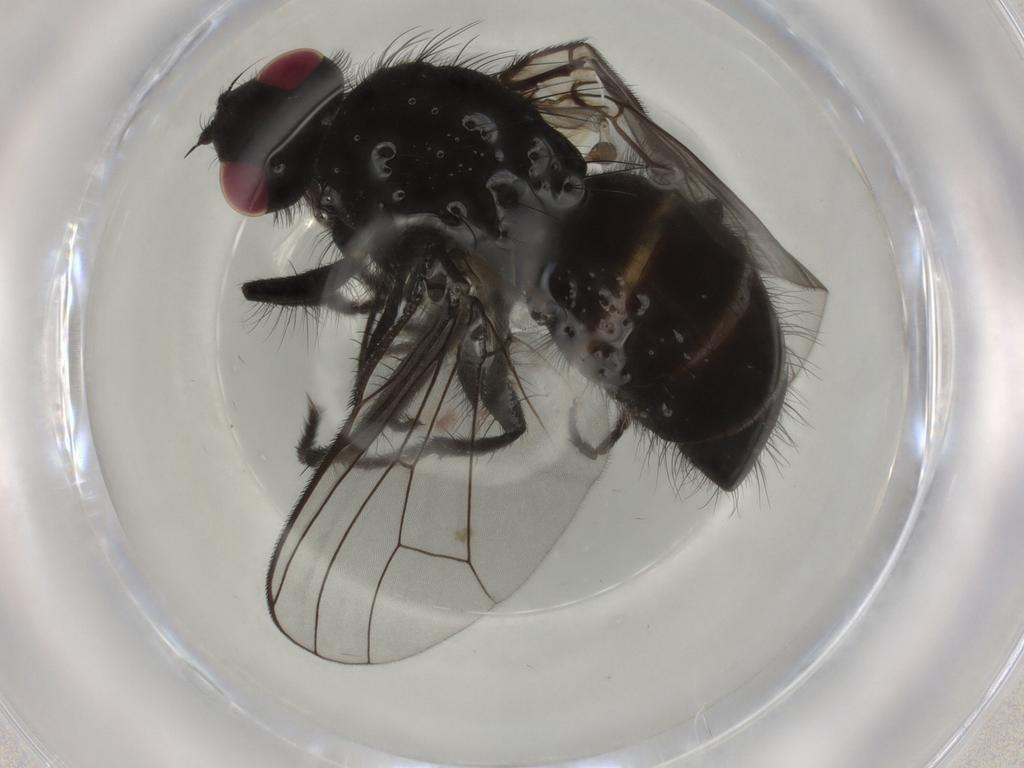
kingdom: Animalia
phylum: Arthropoda
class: Insecta
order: Diptera
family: Muscidae
